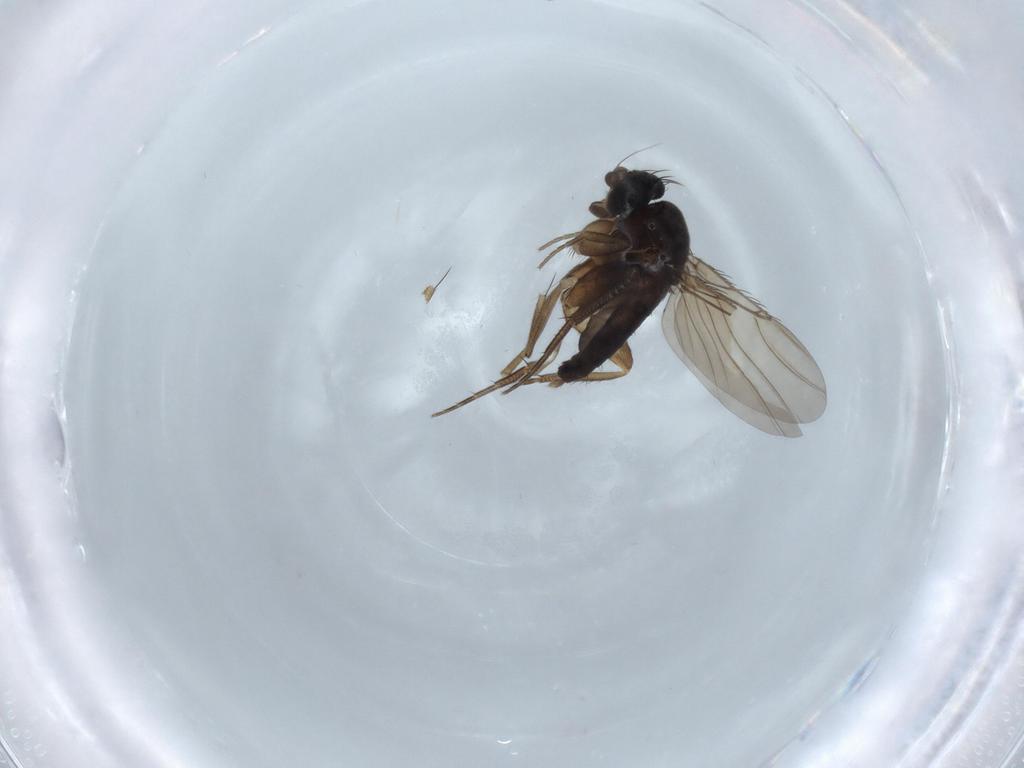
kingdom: Animalia
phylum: Arthropoda
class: Insecta
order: Diptera
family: Phoridae
